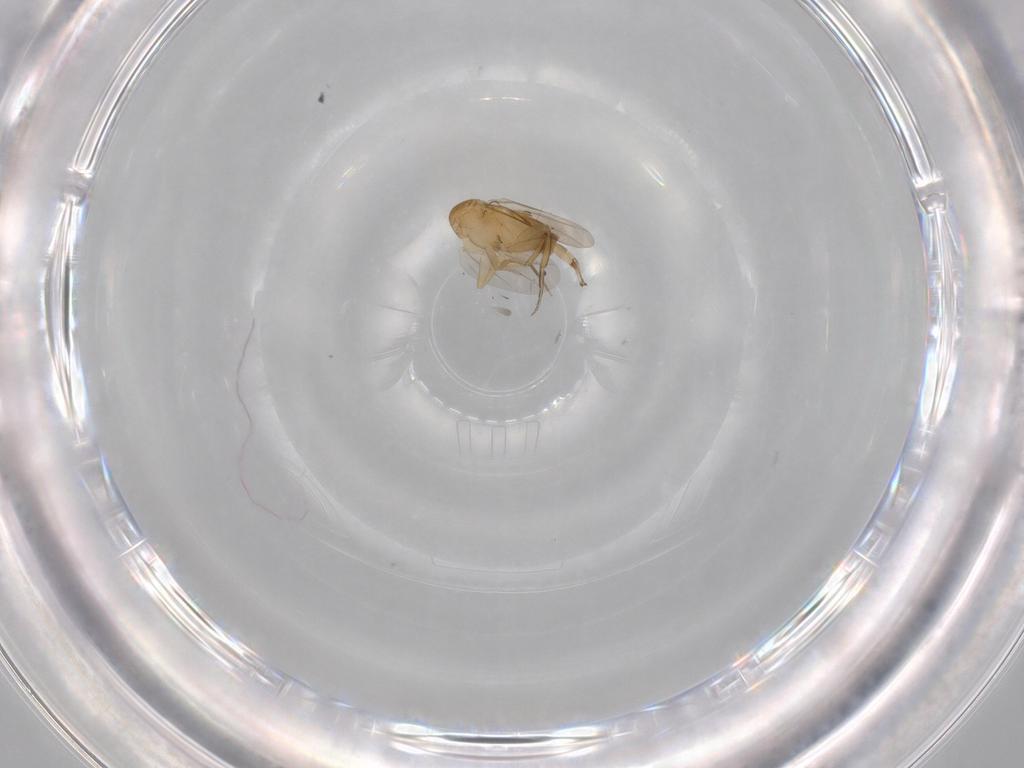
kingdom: Animalia
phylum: Arthropoda
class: Insecta
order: Diptera
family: Phoridae
